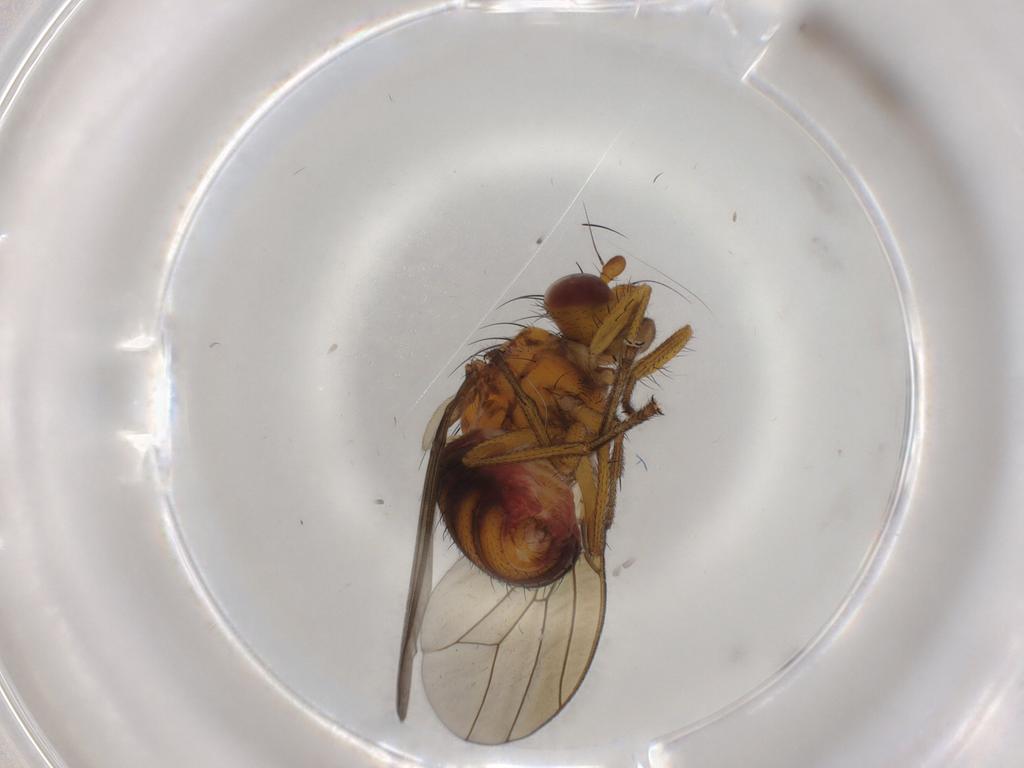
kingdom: Animalia
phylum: Arthropoda
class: Insecta
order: Diptera
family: Lauxaniidae
